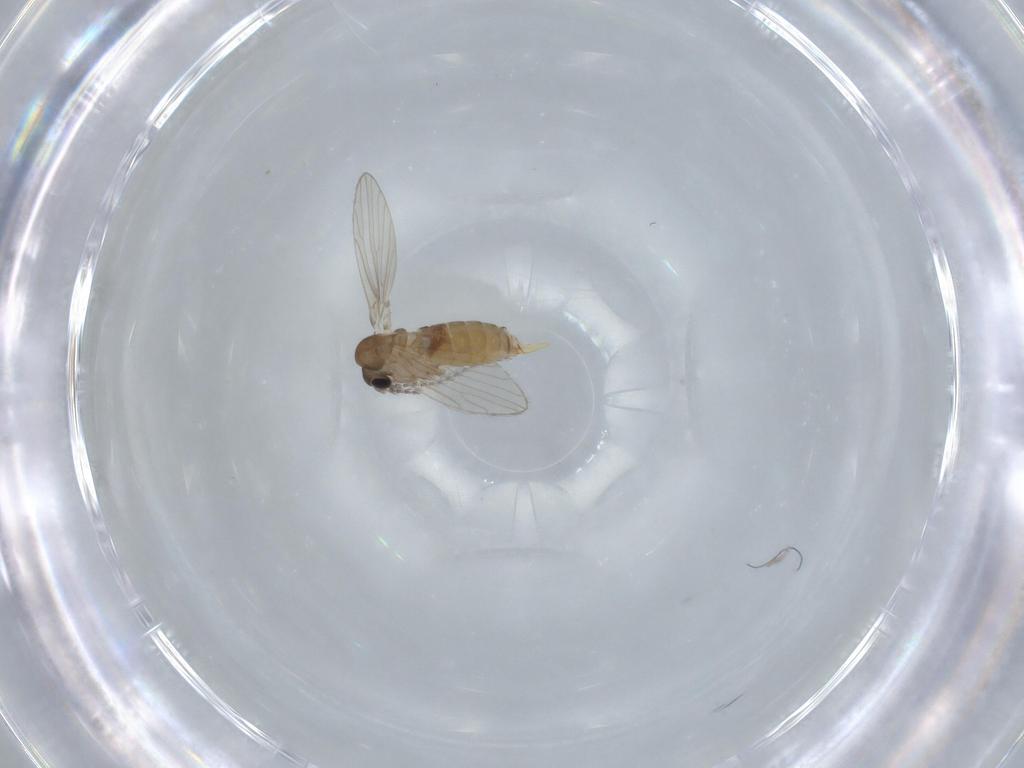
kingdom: Animalia
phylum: Arthropoda
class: Insecta
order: Diptera
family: Psychodidae
